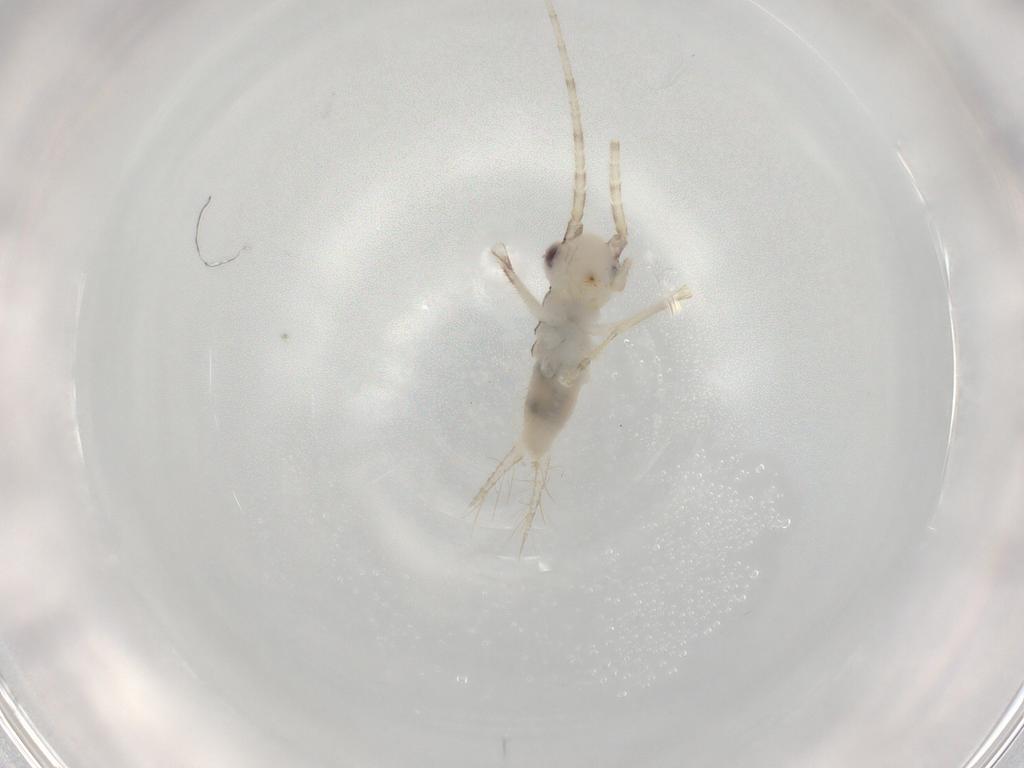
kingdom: Animalia
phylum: Arthropoda
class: Insecta
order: Orthoptera
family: Trigonidiidae
